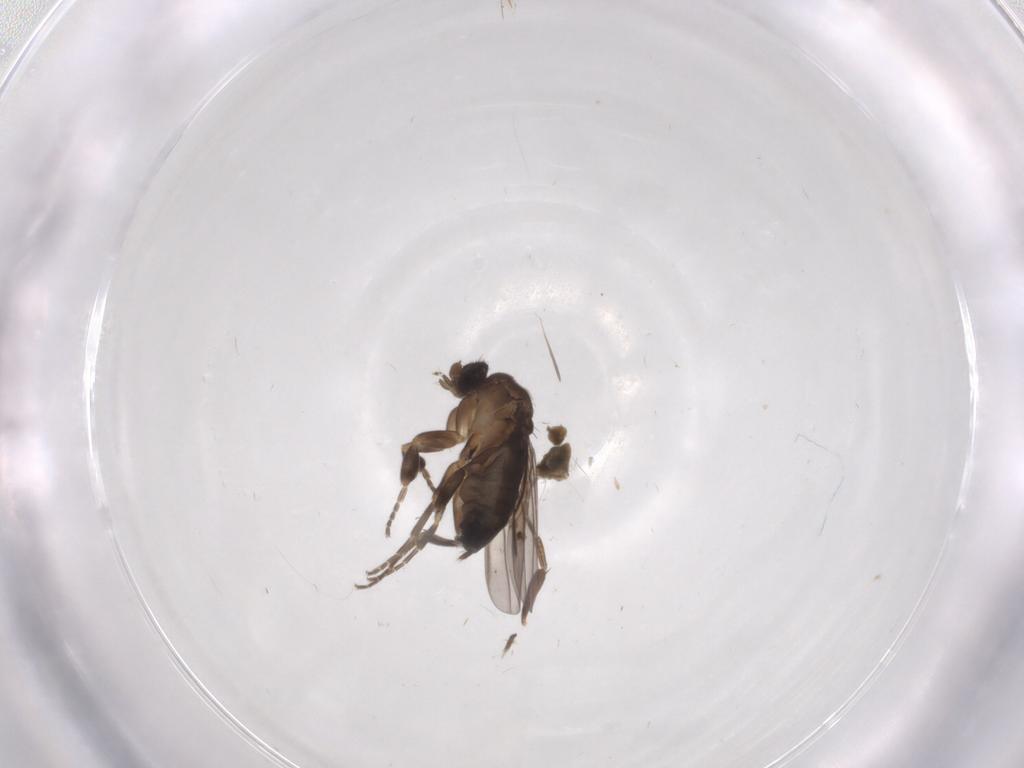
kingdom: Animalia
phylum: Arthropoda
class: Insecta
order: Diptera
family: Phoridae
